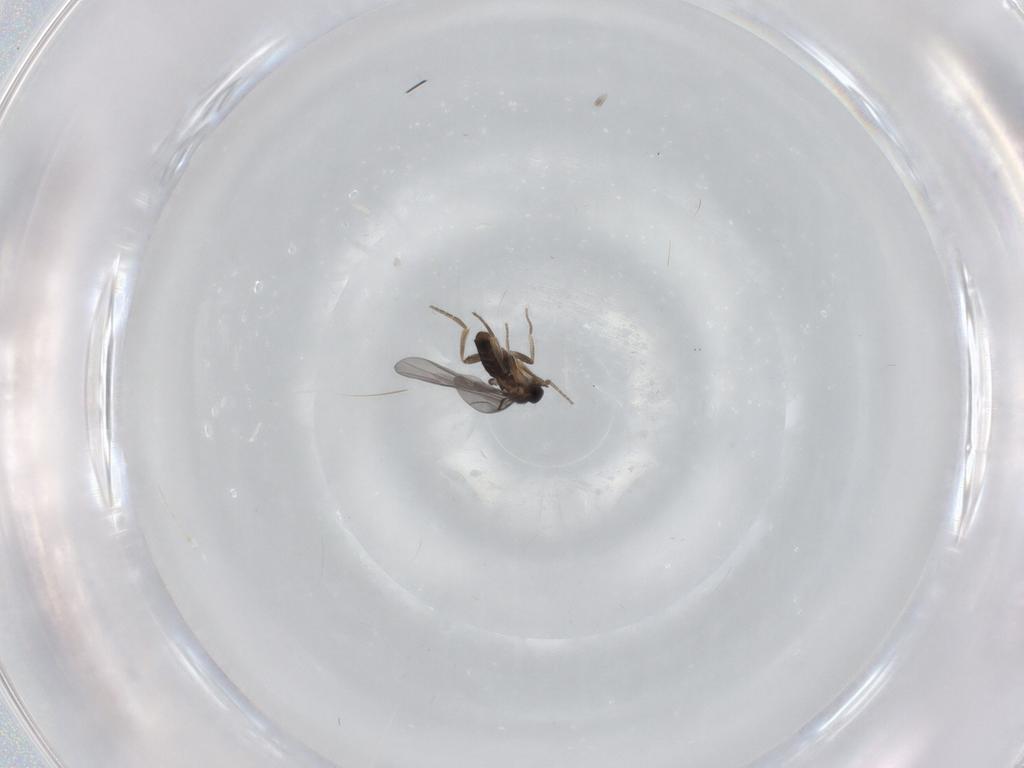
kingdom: Animalia
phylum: Arthropoda
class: Insecta
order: Diptera
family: Phoridae
